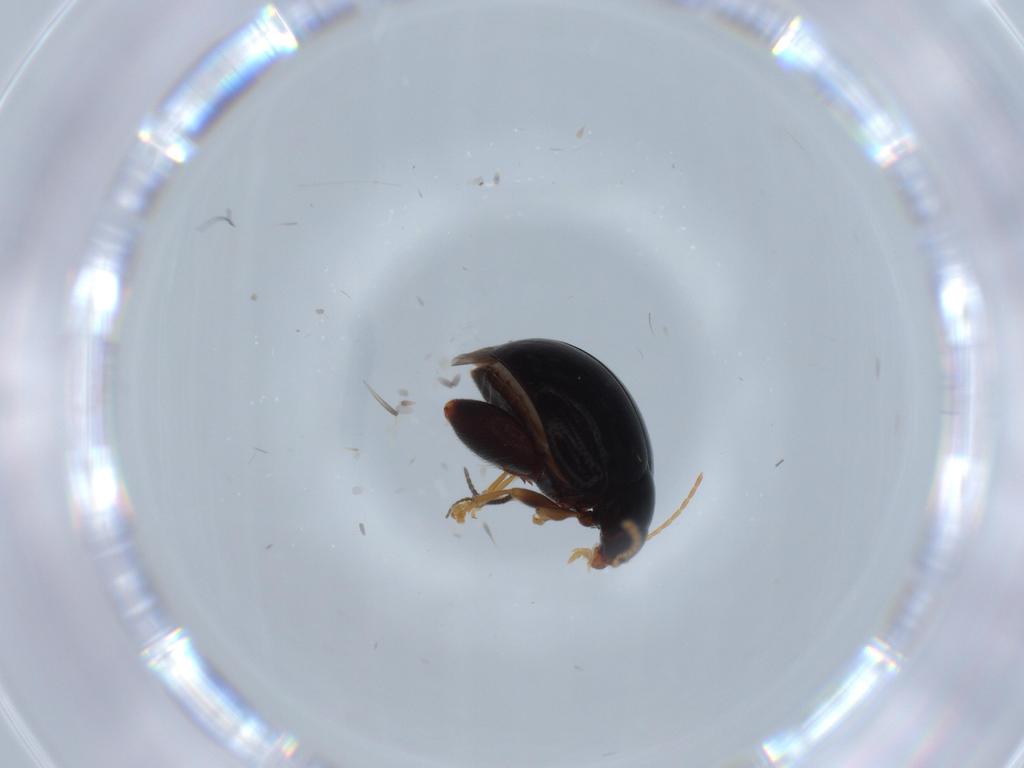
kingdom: Animalia
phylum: Arthropoda
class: Insecta
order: Coleoptera
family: Chrysomelidae
